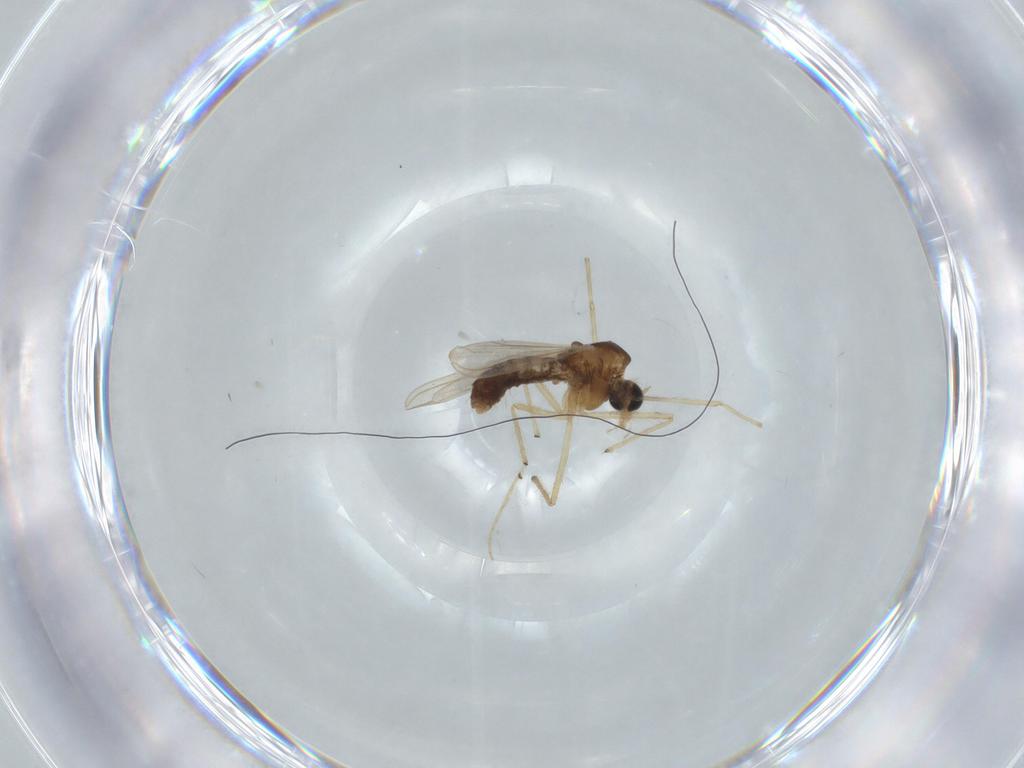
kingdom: Animalia
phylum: Arthropoda
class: Insecta
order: Diptera
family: Chironomidae
